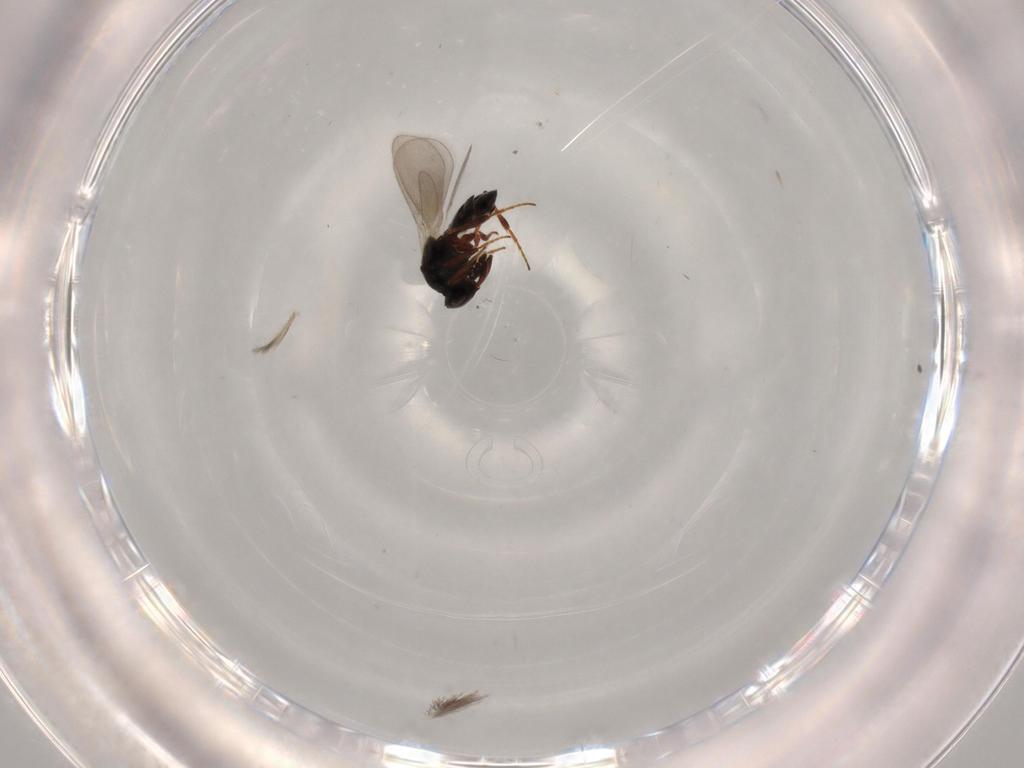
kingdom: Animalia
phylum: Arthropoda
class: Insecta
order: Hymenoptera
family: Platygastridae
